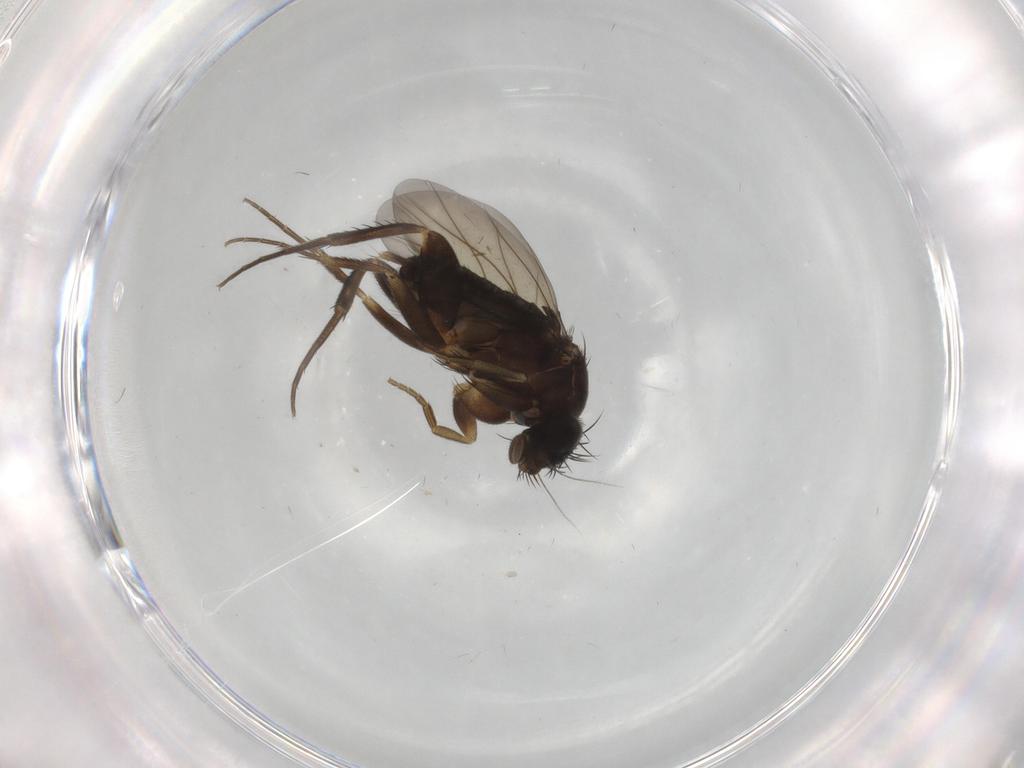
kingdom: Animalia
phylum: Arthropoda
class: Insecta
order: Diptera
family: Phoridae
